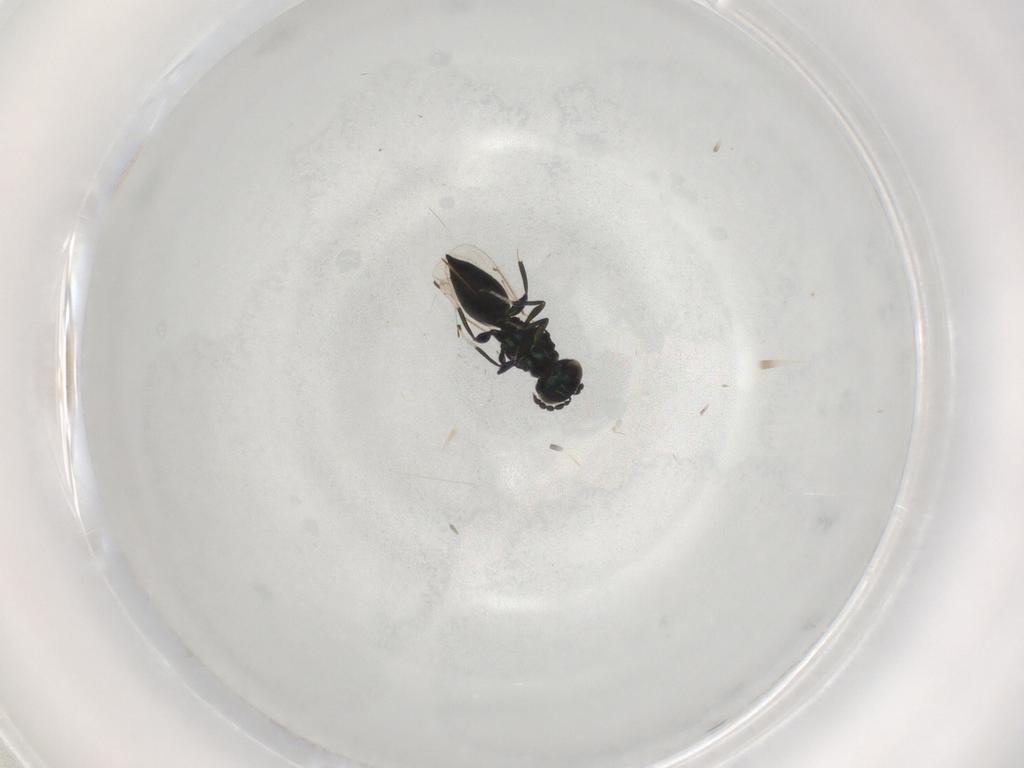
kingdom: Animalia
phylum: Arthropoda
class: Insecta
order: Hymenoptera
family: Eulophidae
